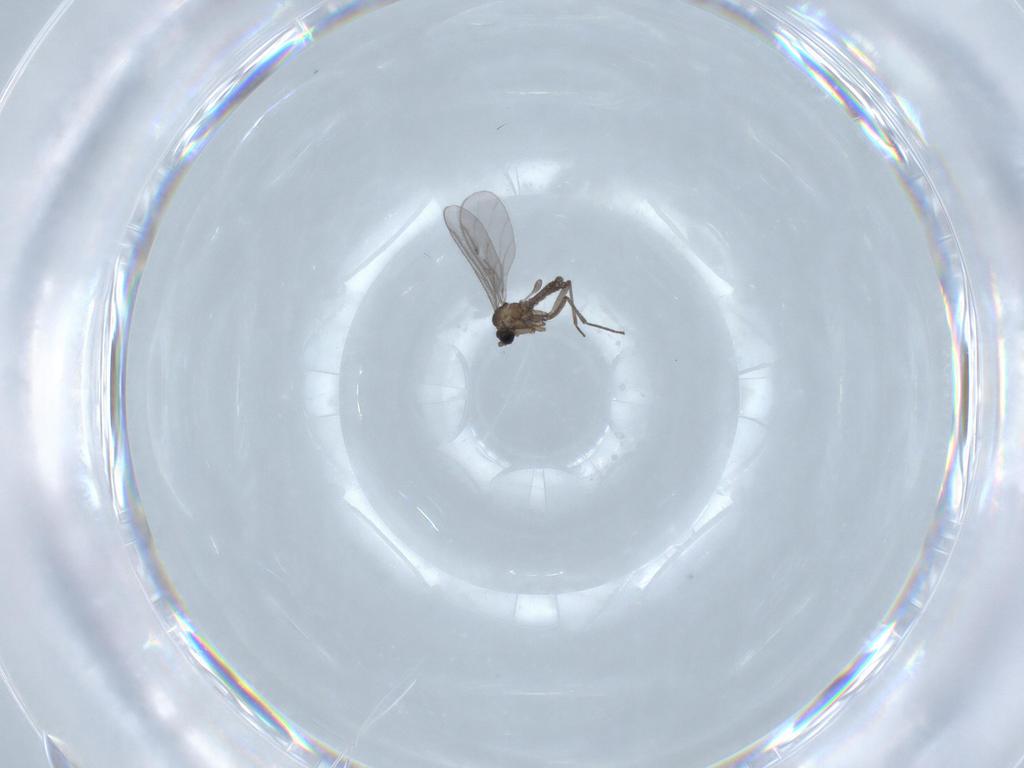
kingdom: Animalia
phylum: Arthropoda
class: Insecta
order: Diptera
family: Sciaridae
